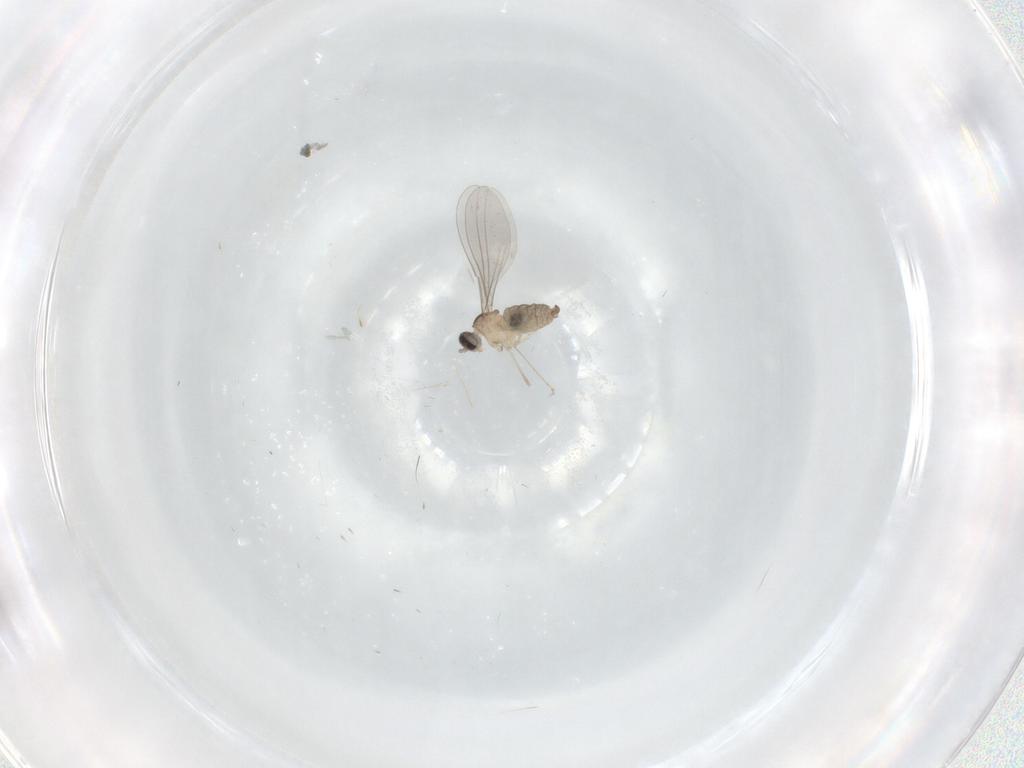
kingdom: Animalia
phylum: Arthropoda
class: Insecta
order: Diptera
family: Cecidomyiidae
